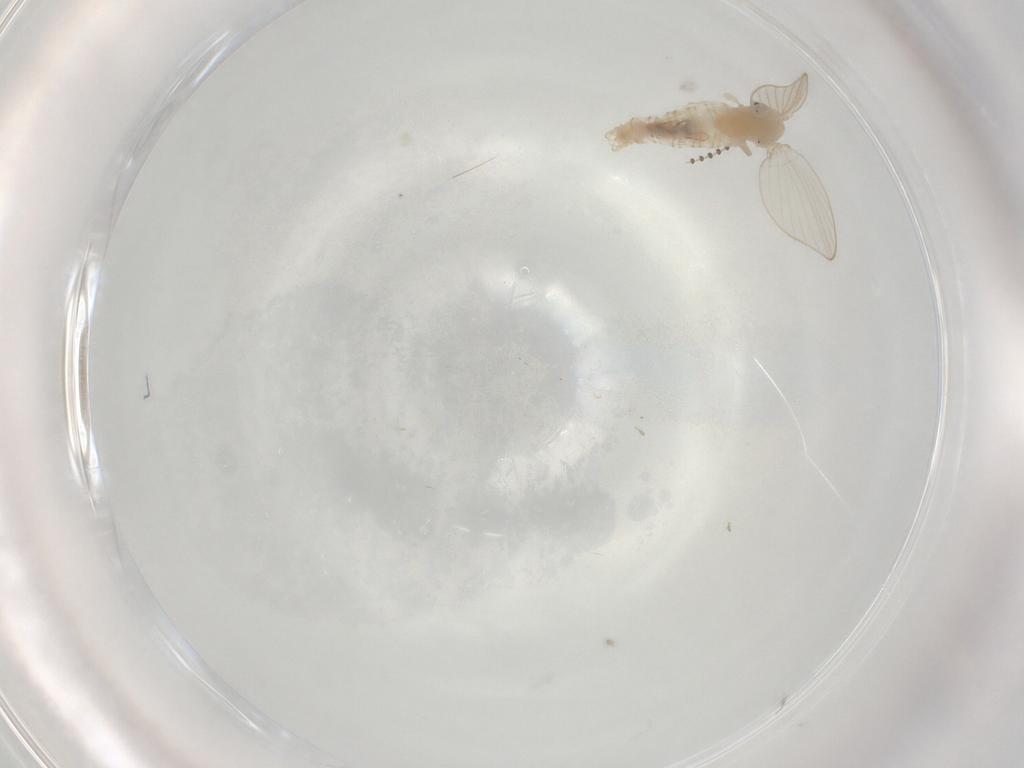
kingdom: Animalia
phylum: Arthropoda
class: Insecta
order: Diptera
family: Psychodidae
